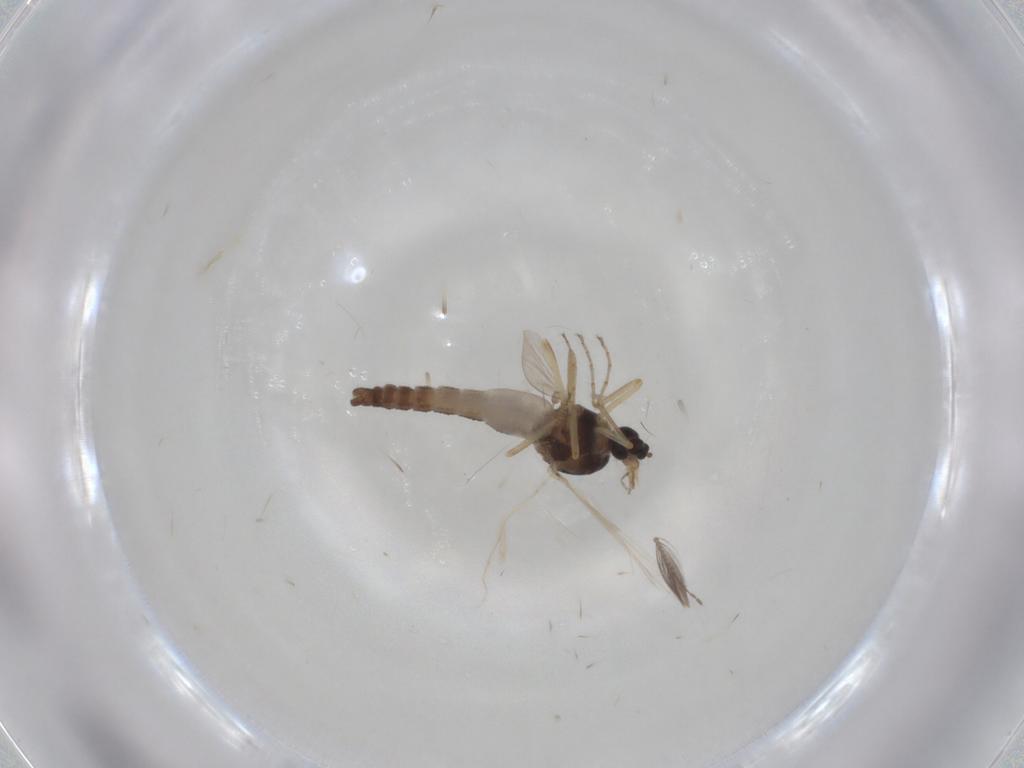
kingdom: Animalia
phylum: Arthropoda
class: Insecta
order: Diptera
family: Ceratopogonidae
